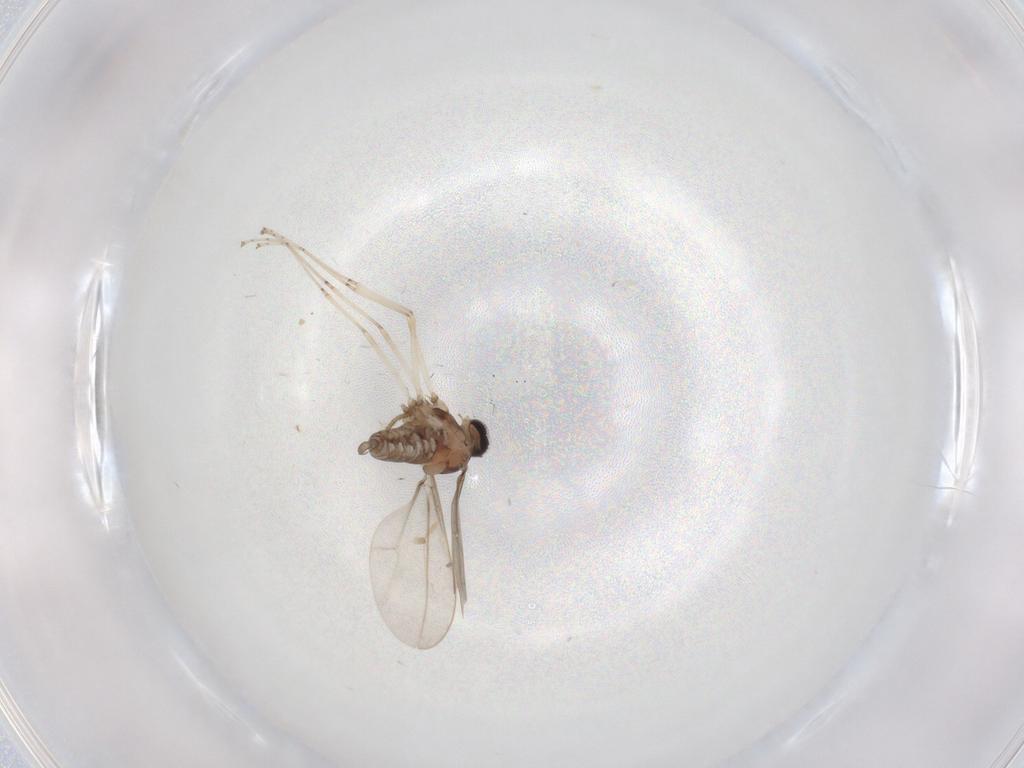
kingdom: Animalia
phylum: Arthropoda
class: Insecta
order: Diptera
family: Cecidomyiidae
